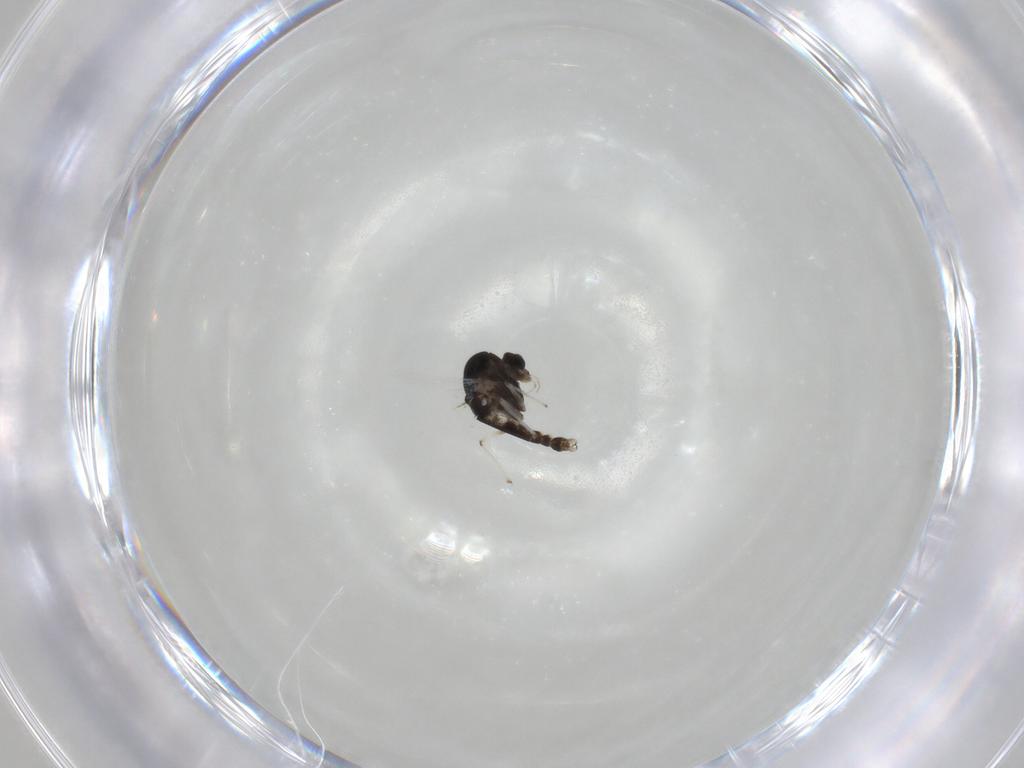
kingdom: Animalia
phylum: Arthropoda
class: Insecta
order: Diptera
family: Chironomidae
